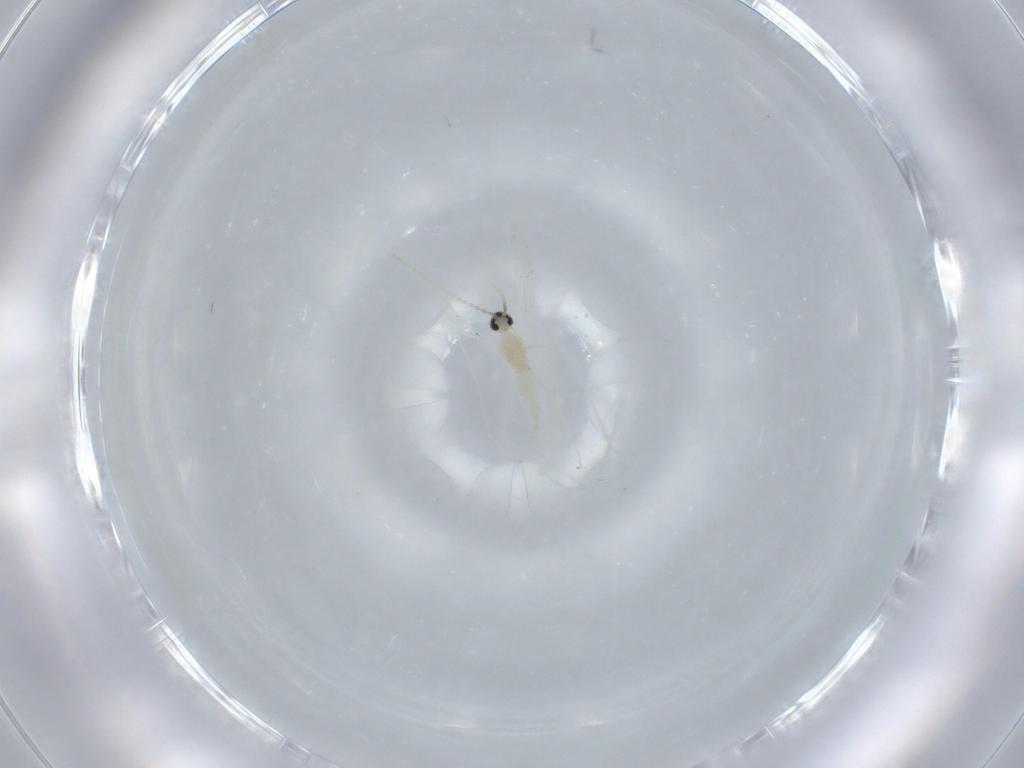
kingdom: Animalia
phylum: Arthropoda
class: Insecta
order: Diptera
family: Phoridae
